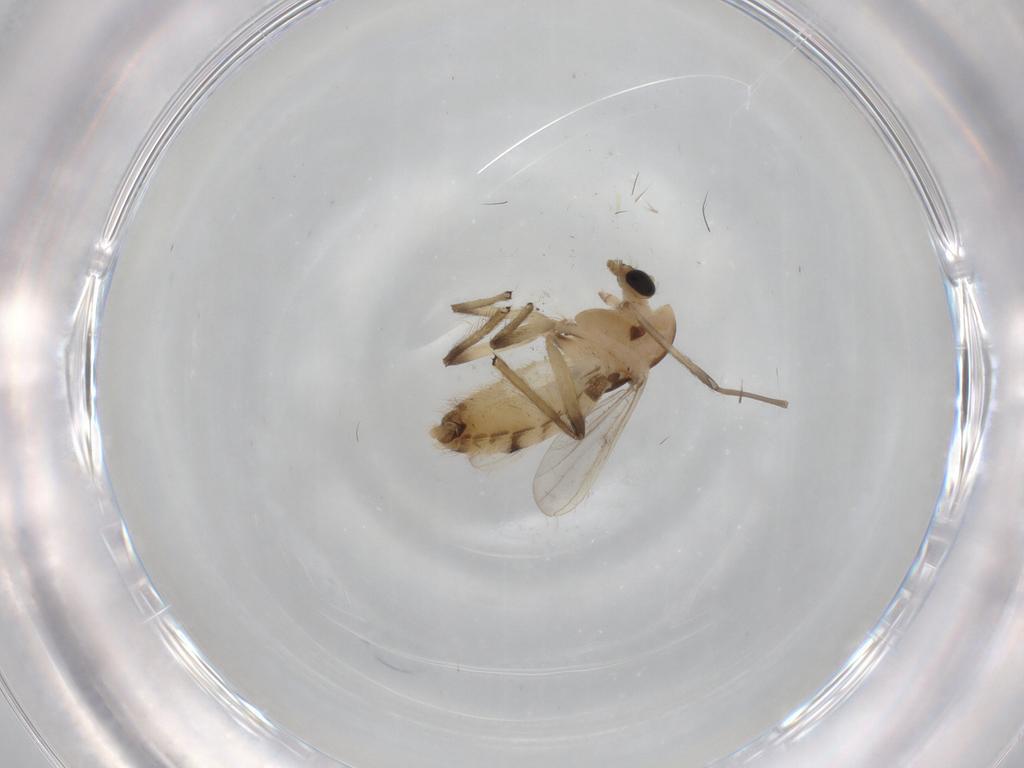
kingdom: Animalia
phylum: Arthropoda
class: Insecta
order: Diptera
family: Chironomidae
